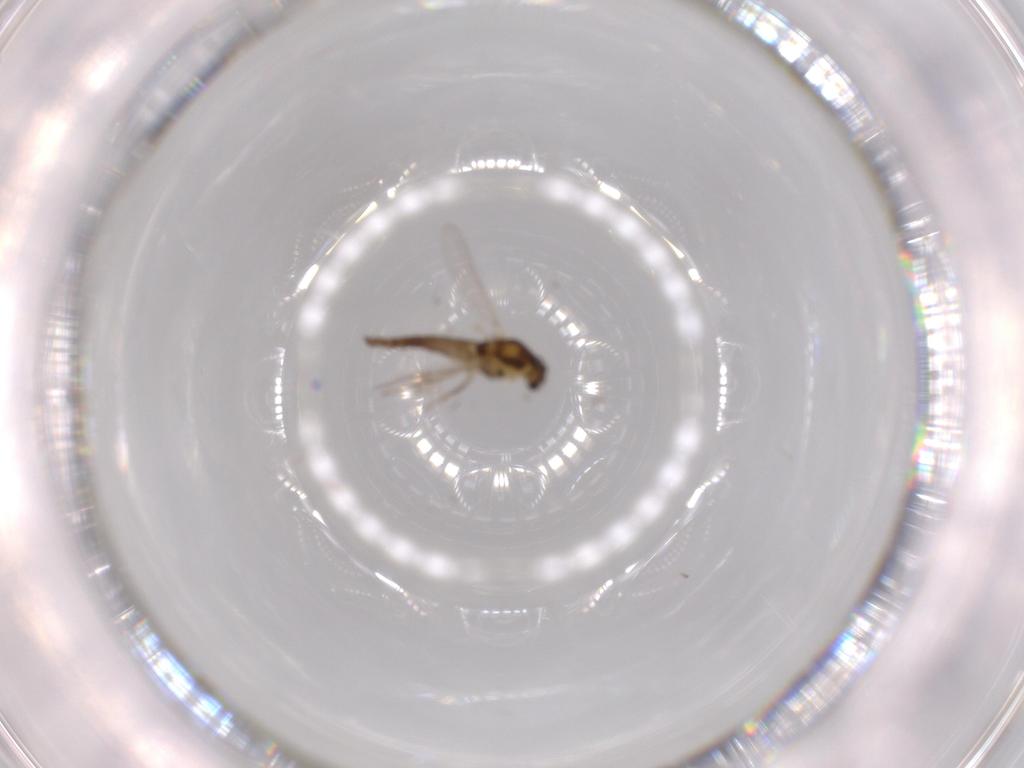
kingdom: Animalia
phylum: Arthropoda
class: Insecta
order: Diptera
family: Chironomidae
